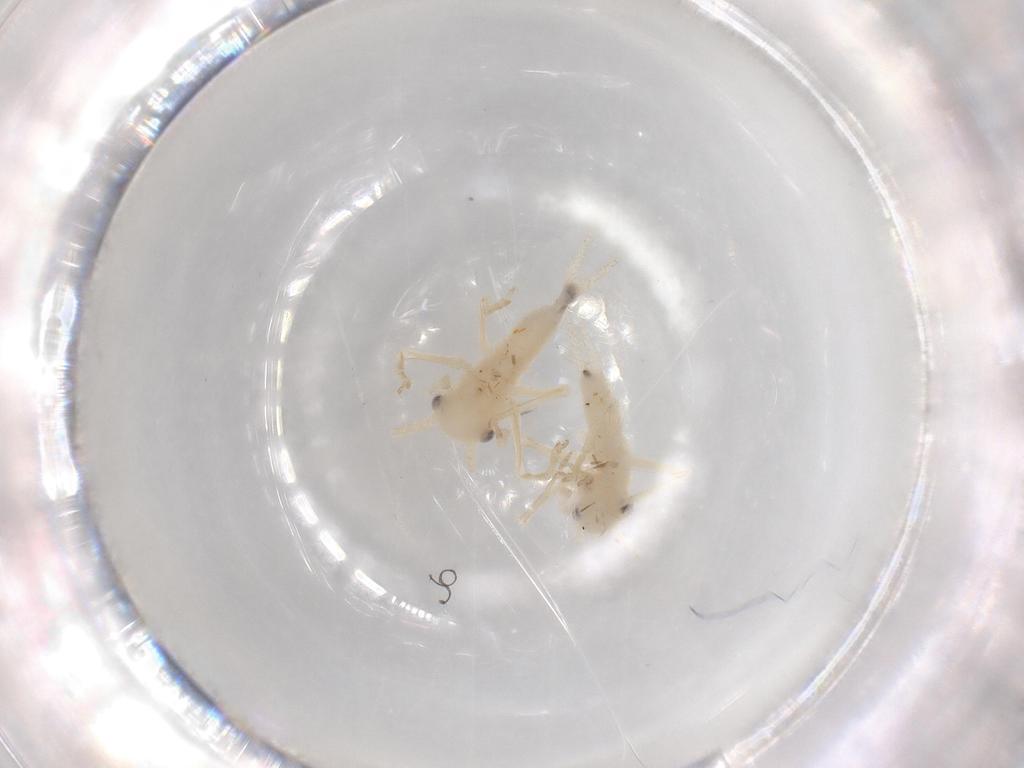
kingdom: Animalia
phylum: Arthropoda
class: Insecta
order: Orthoptera
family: Trigonidiidae
